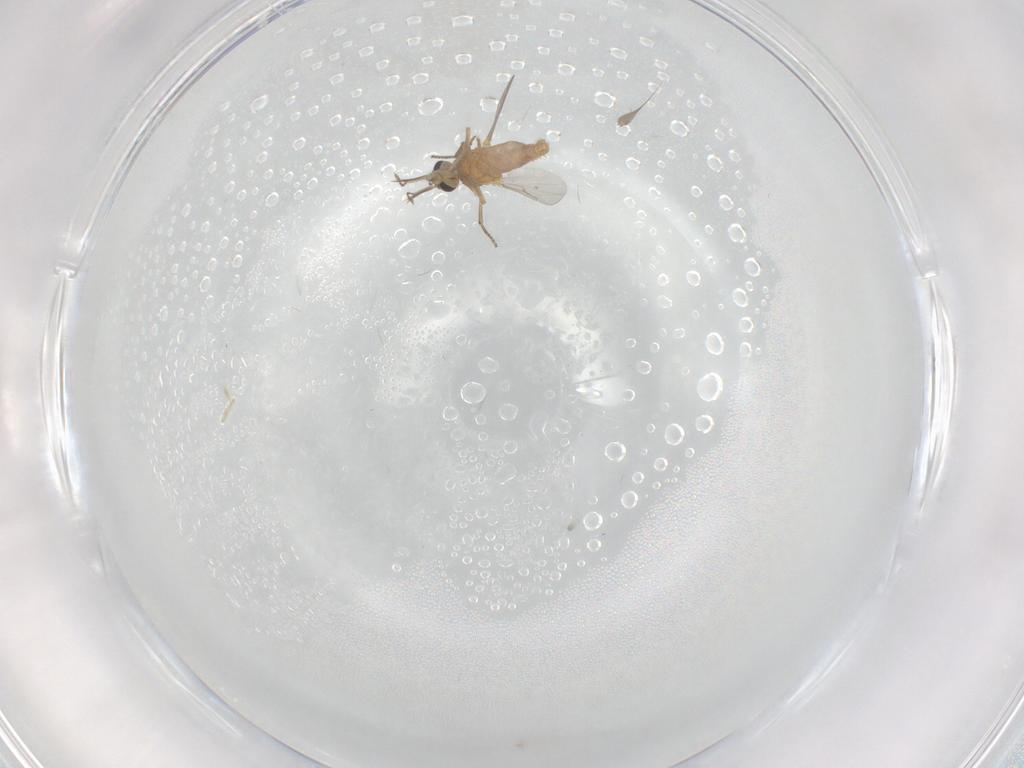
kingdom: Animalia
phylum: Arthropoda
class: Insecta
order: Diptera
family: Ceratopogonidae
